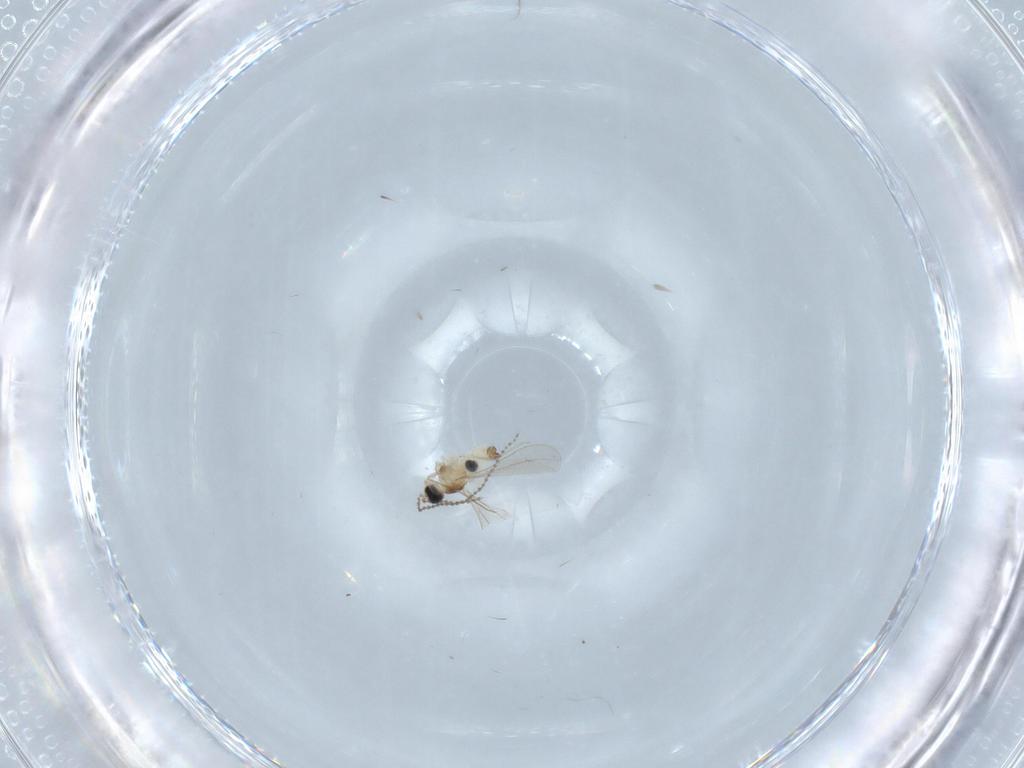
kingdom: Animalia
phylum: Arthropoda
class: Insecta
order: Diptera
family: Cecidomyiidae
